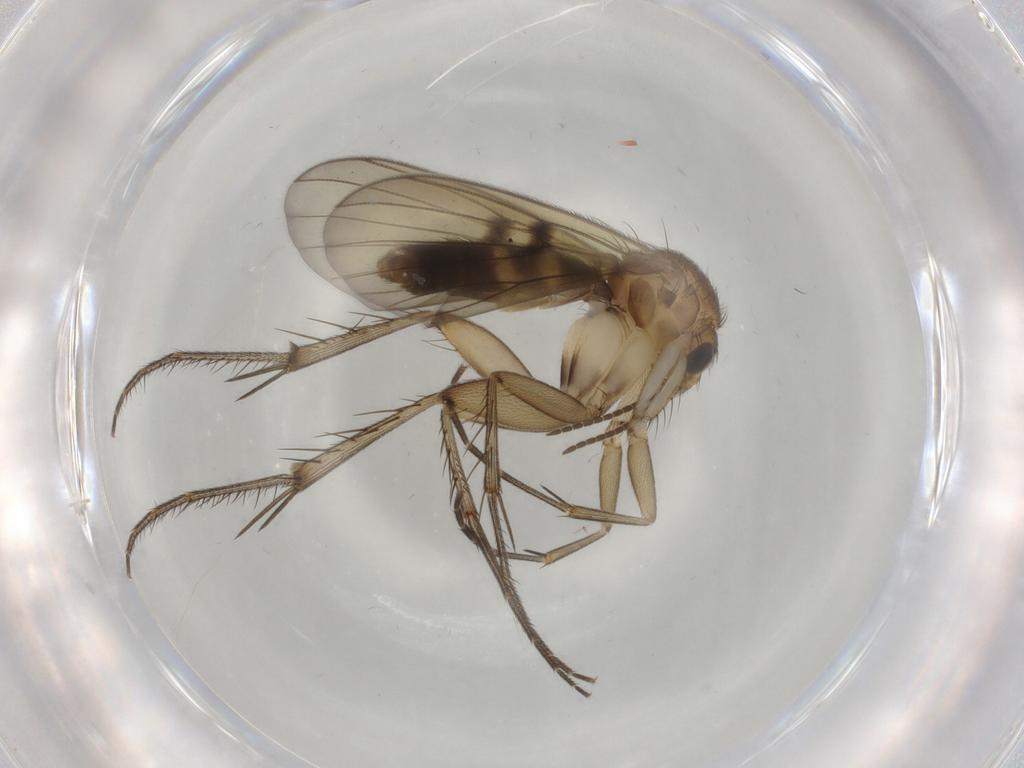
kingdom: Animalia
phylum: Arthropoda
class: Insecta
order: Diptera
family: Mycetophilidae
